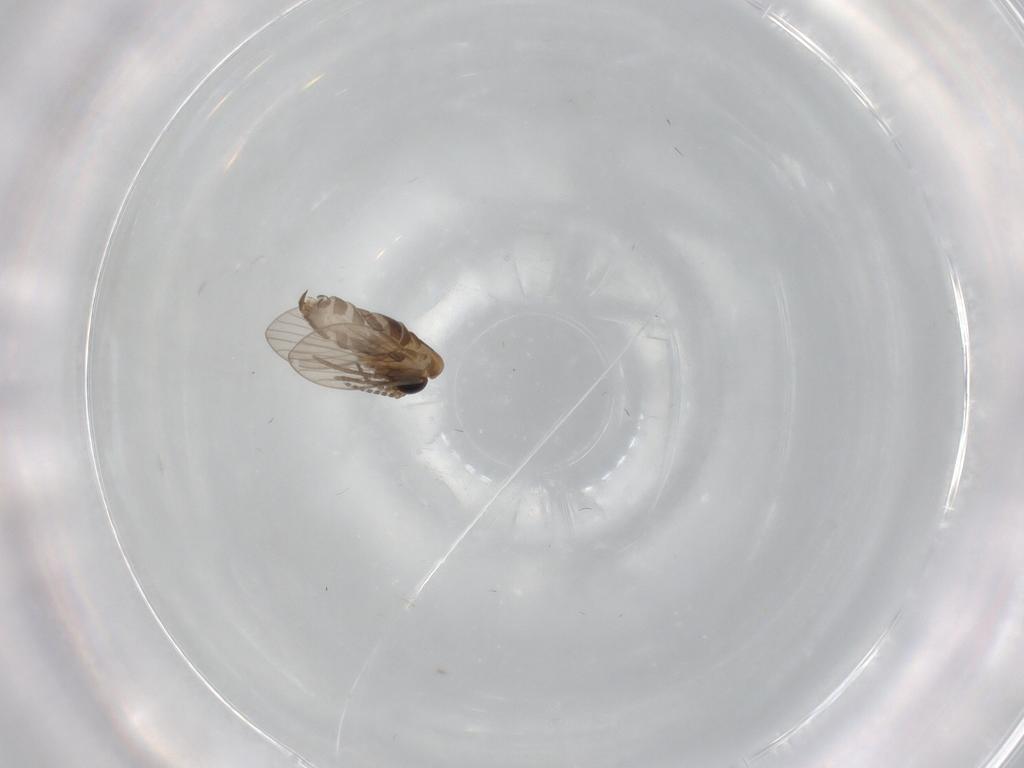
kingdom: Animalia
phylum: Arthropoda
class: Insecta
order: Diptera
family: Psychodidae
